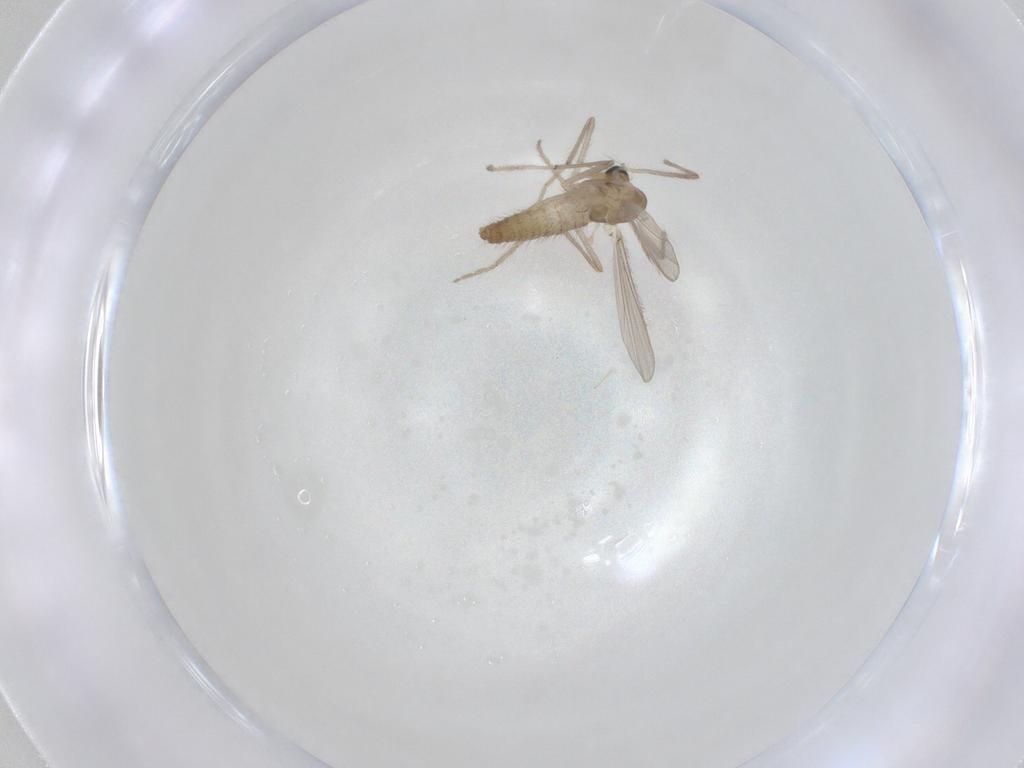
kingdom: Animalia
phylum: Arthropoda
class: Insecta
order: Diptera
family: Chironomidae
